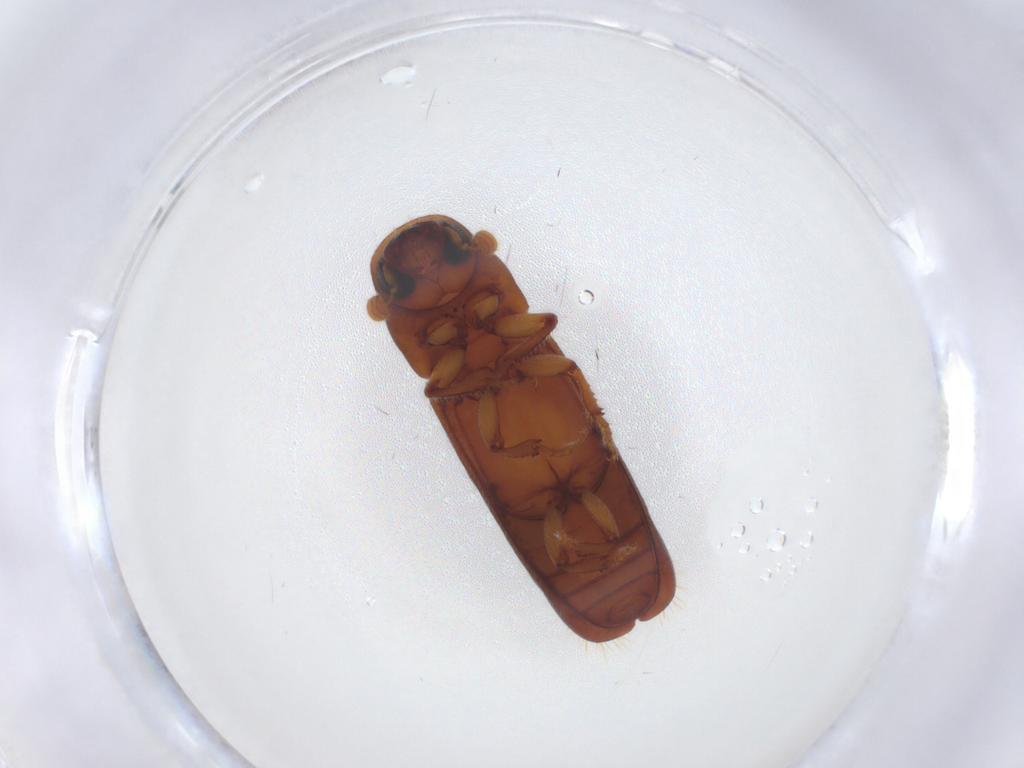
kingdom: Animalia
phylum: Arthropoda
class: Insecta
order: Coleoptera
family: Curculionidae
